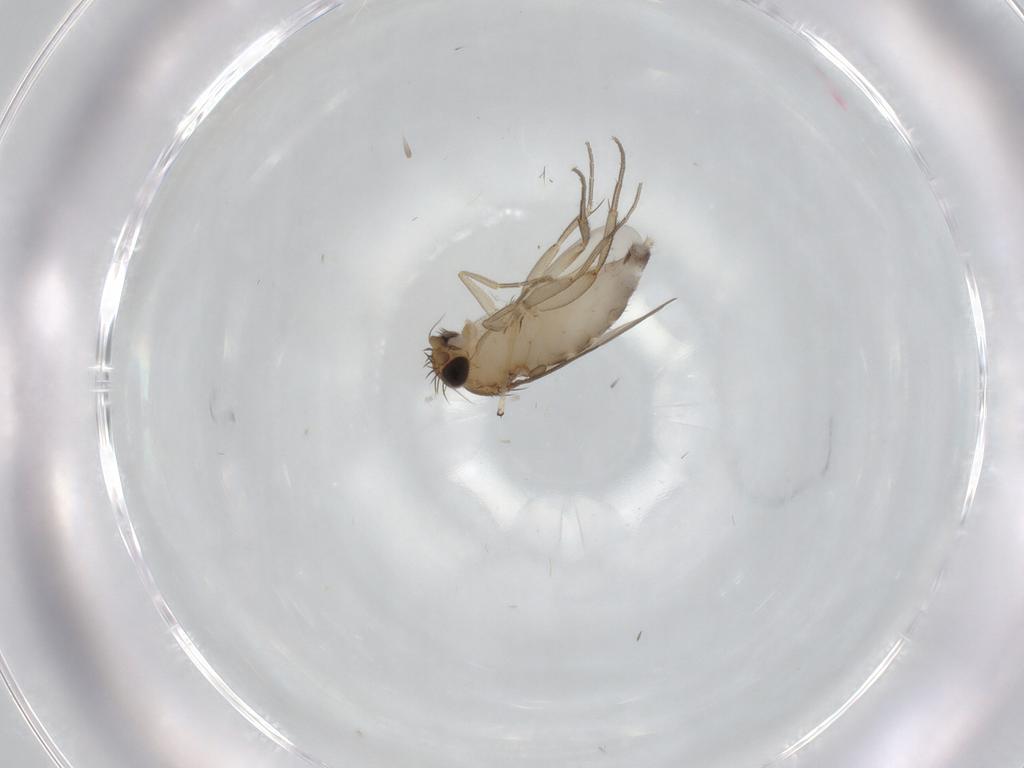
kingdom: Animalia
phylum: Arthropoda
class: Insecta
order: Diptera
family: Phoridae
